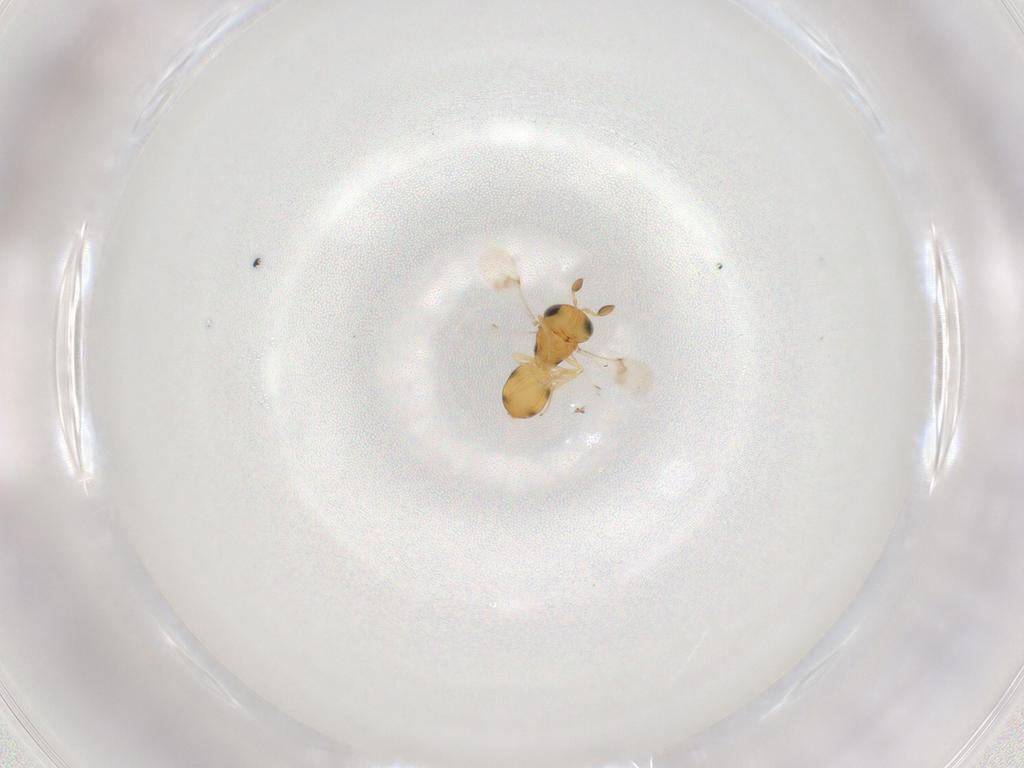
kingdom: Animalia
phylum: Arthropoda
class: Insecta
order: Hymenoptera
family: Scelionidae
